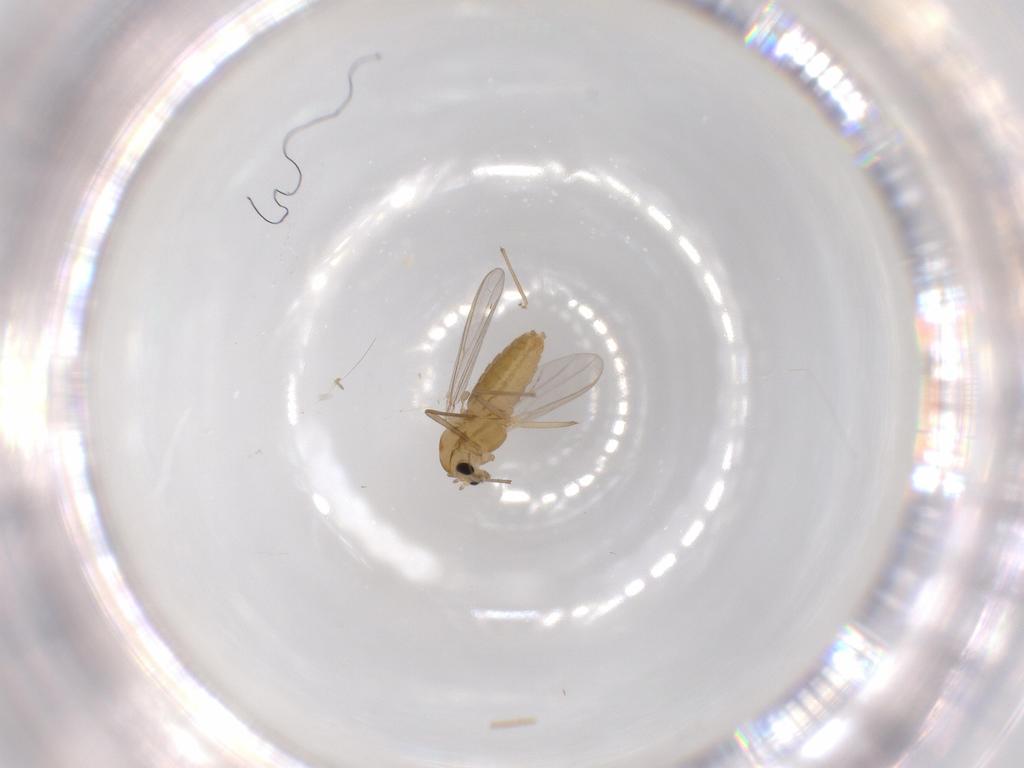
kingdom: Animalia
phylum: Arthropoda
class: Insecta
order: Diptera
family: Chironomidae
